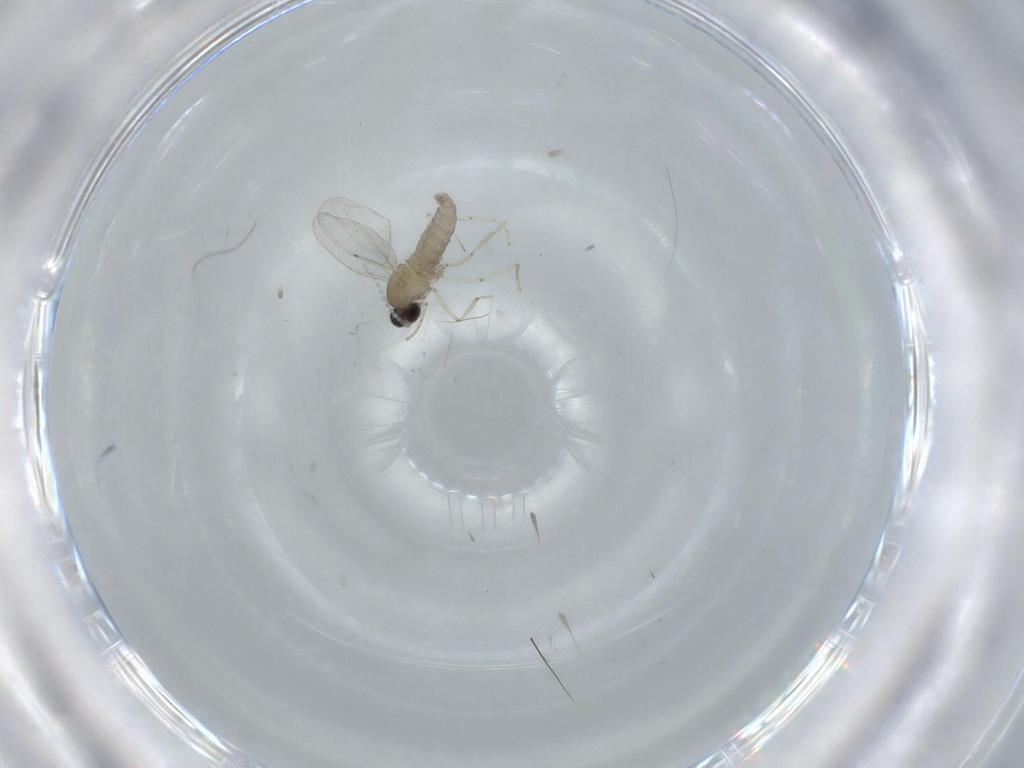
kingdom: Animalia
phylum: Arthropoda
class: Insecta
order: Diptera
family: Cecidomyiidae
